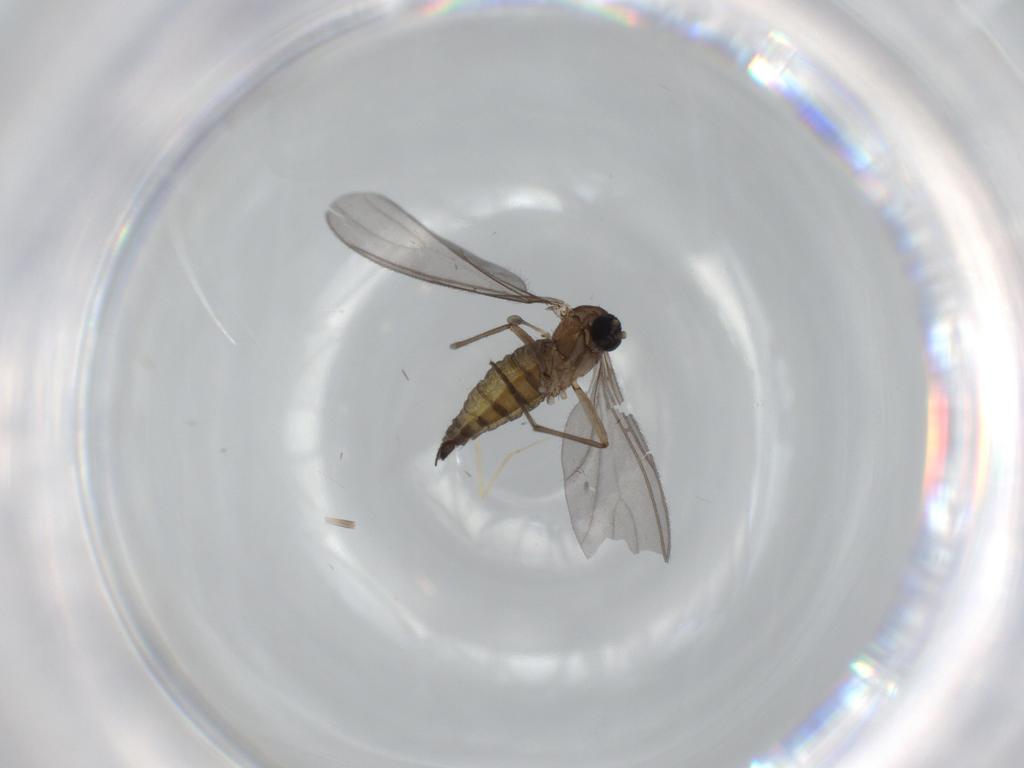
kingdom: Animalia
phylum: Arthropoda
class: Insecta
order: Diptera
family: Sciaridae
